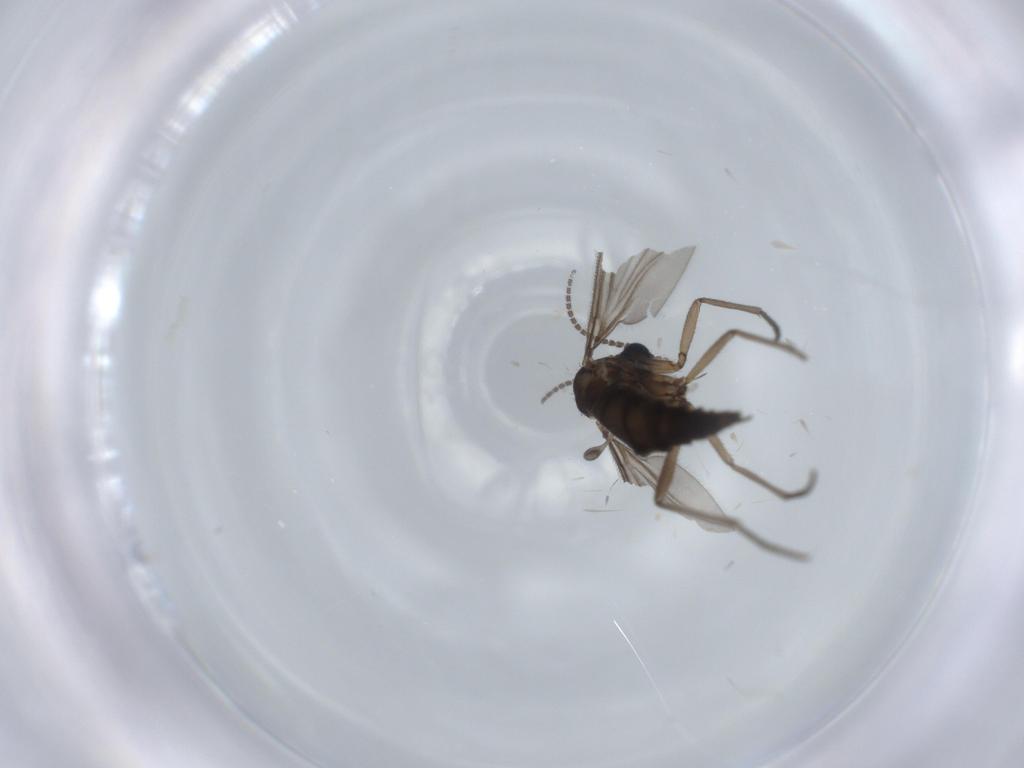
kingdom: Animalia
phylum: Arthropoda
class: Insecta
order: Diptera
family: Sciaridae
